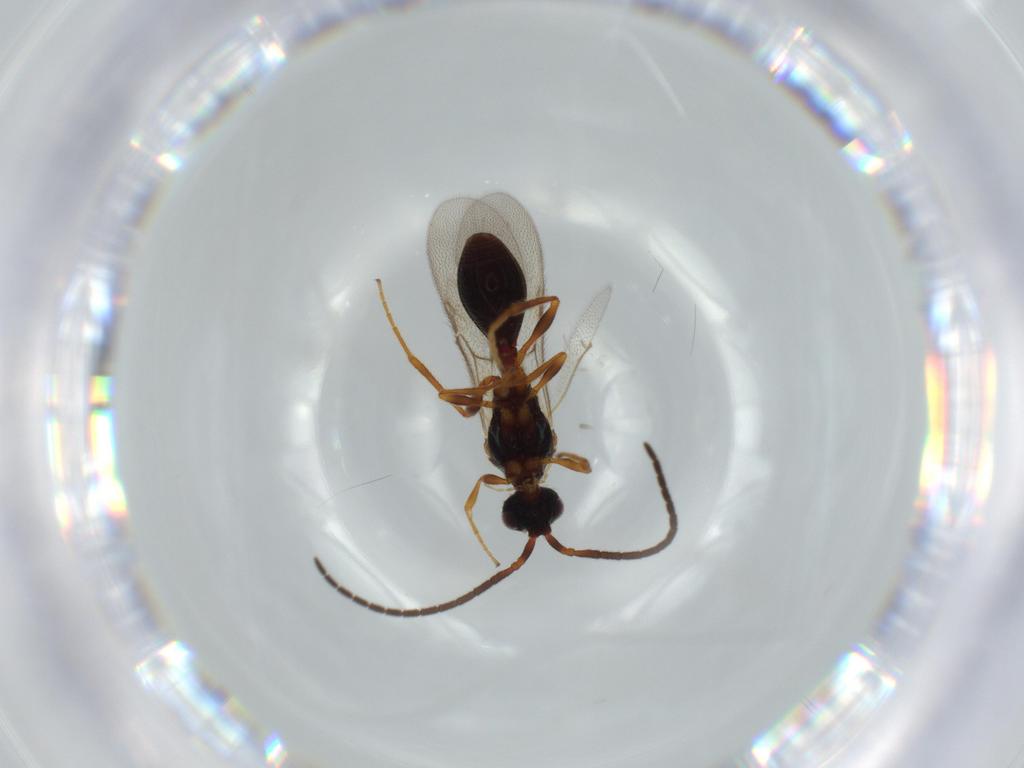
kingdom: Animalia
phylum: Arthropoda
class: Insecta
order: Hymenoptera
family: Diapriidae
